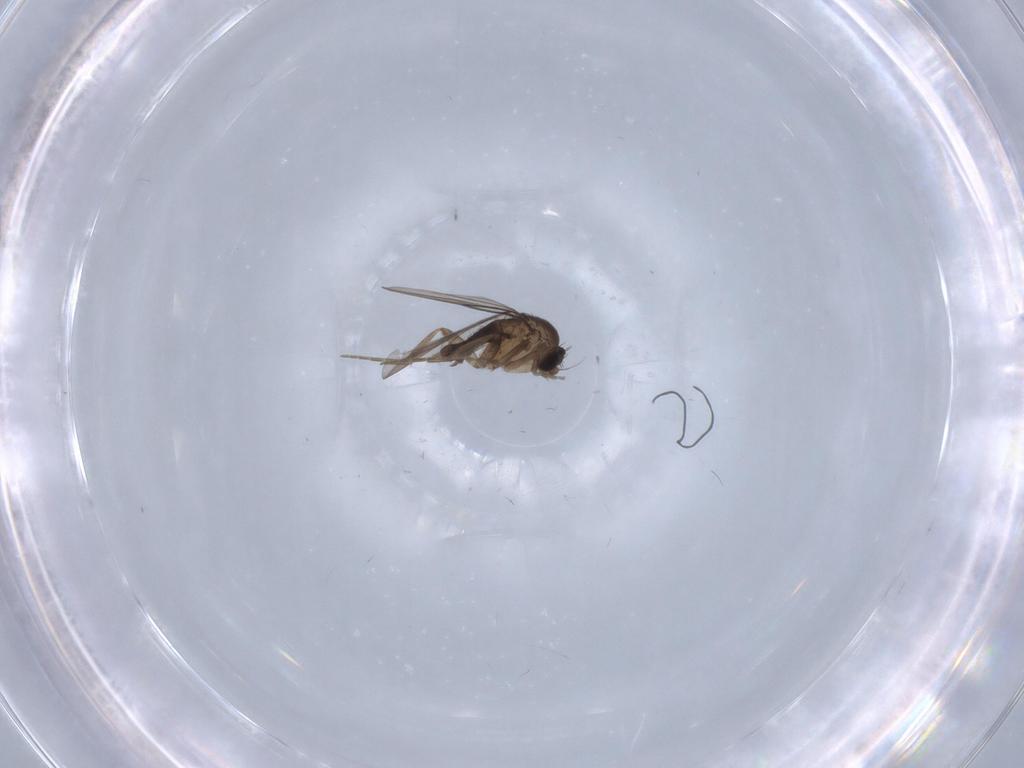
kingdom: Animalia
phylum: Arthropoda
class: Insecta
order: Diptera
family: Phoridae
